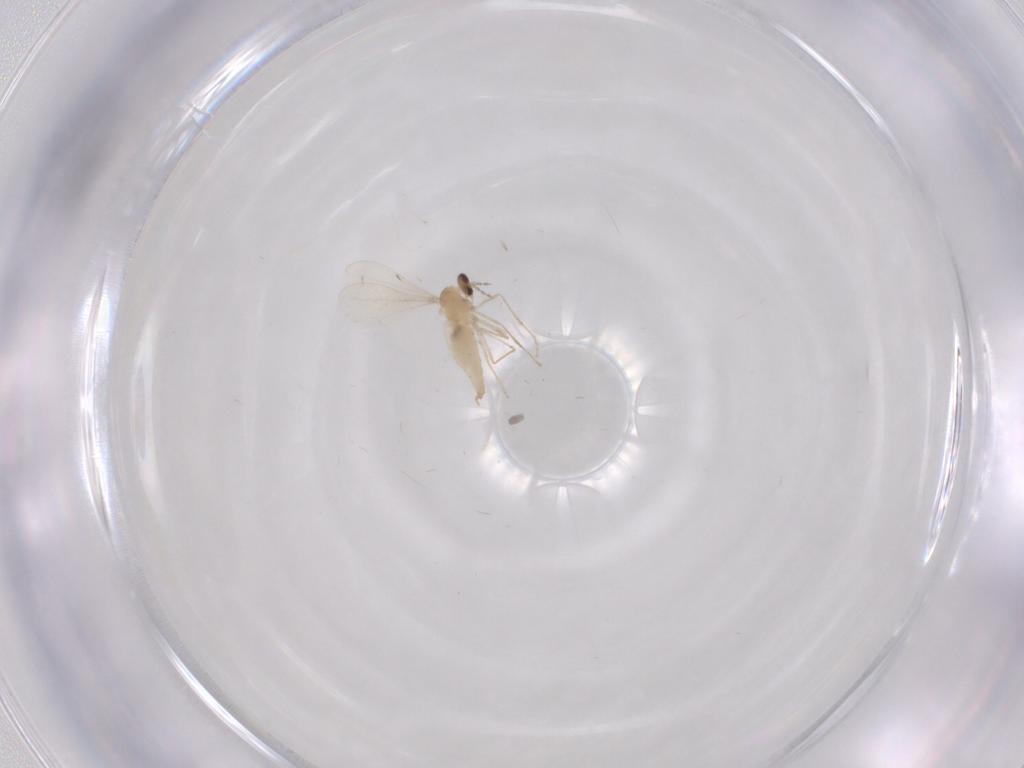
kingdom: Animalia
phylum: Arthropoda
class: Insecta
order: Diptera
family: Cecidomyiidae
